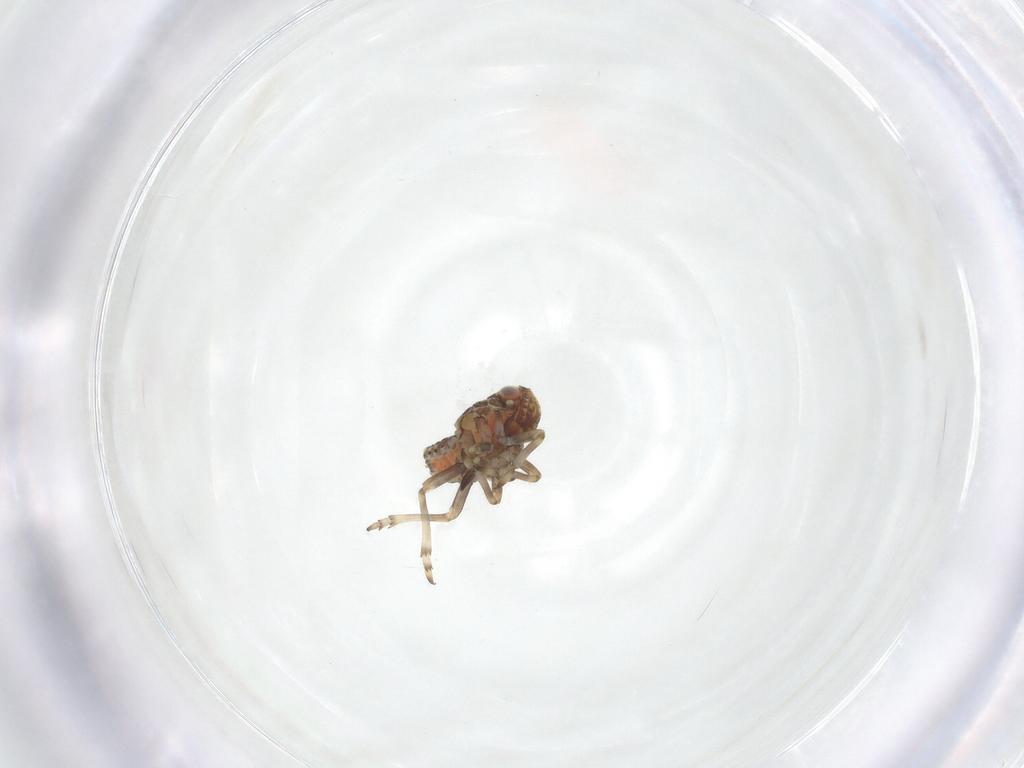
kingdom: Animalia
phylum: Arthropoda
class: Insecta
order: Hemiptera
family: Tropiduchidae
